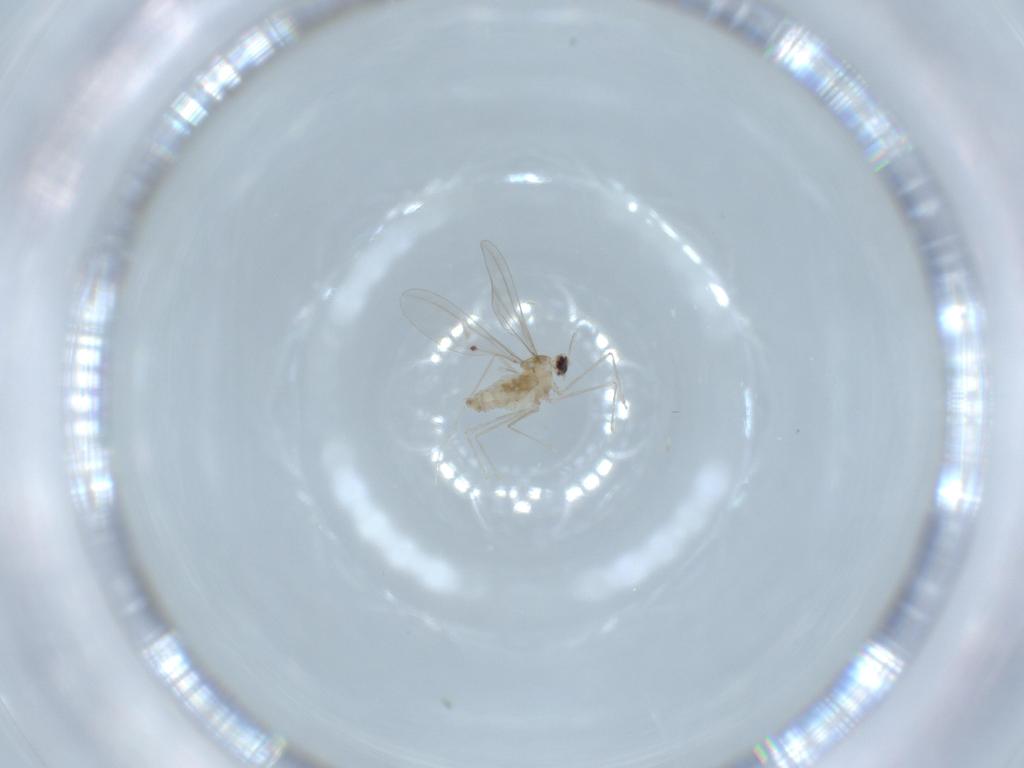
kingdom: Animalia
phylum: Arthropoda
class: Insecta
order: Diptera
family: Cecidomyiidae
